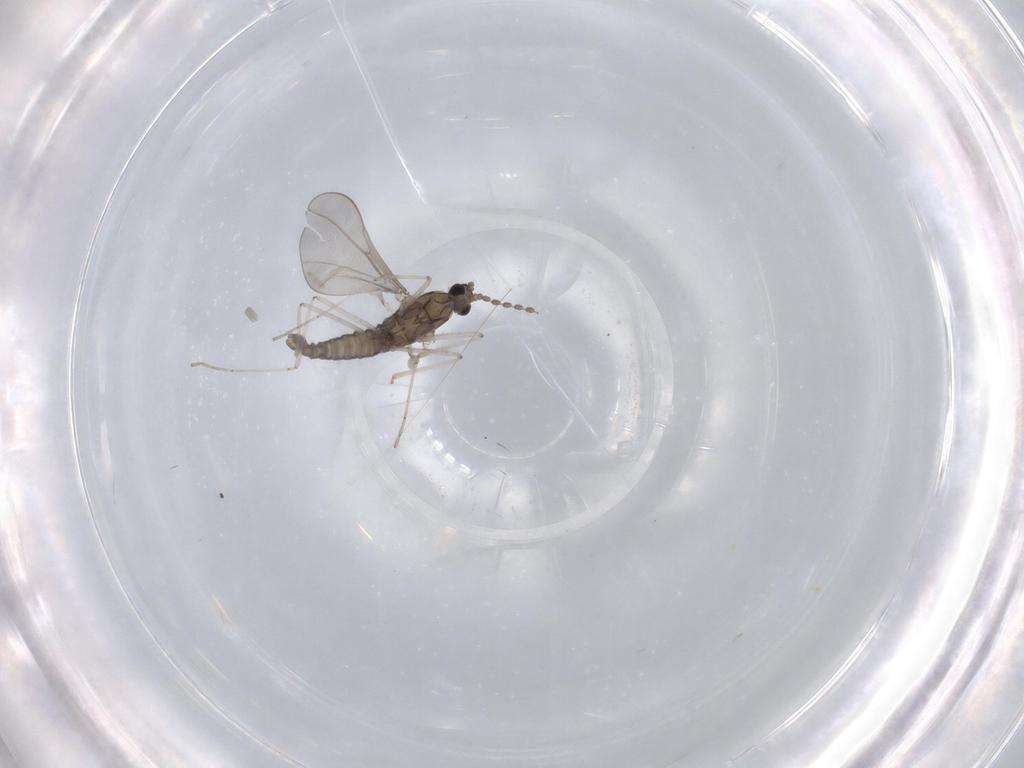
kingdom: Animalia
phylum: Arthropoda
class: Insecta
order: Diptera
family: Cecidomyiidae
